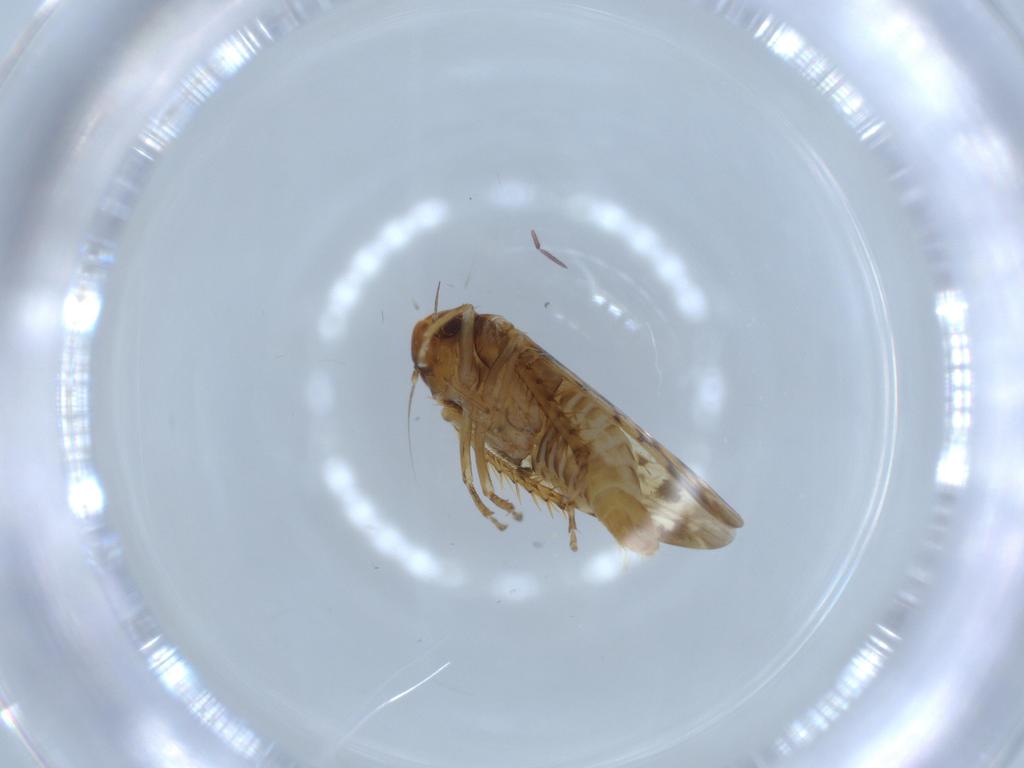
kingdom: Animalia
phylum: Arthropoda
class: Insecta
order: Hemiptera
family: Cicadellidae
